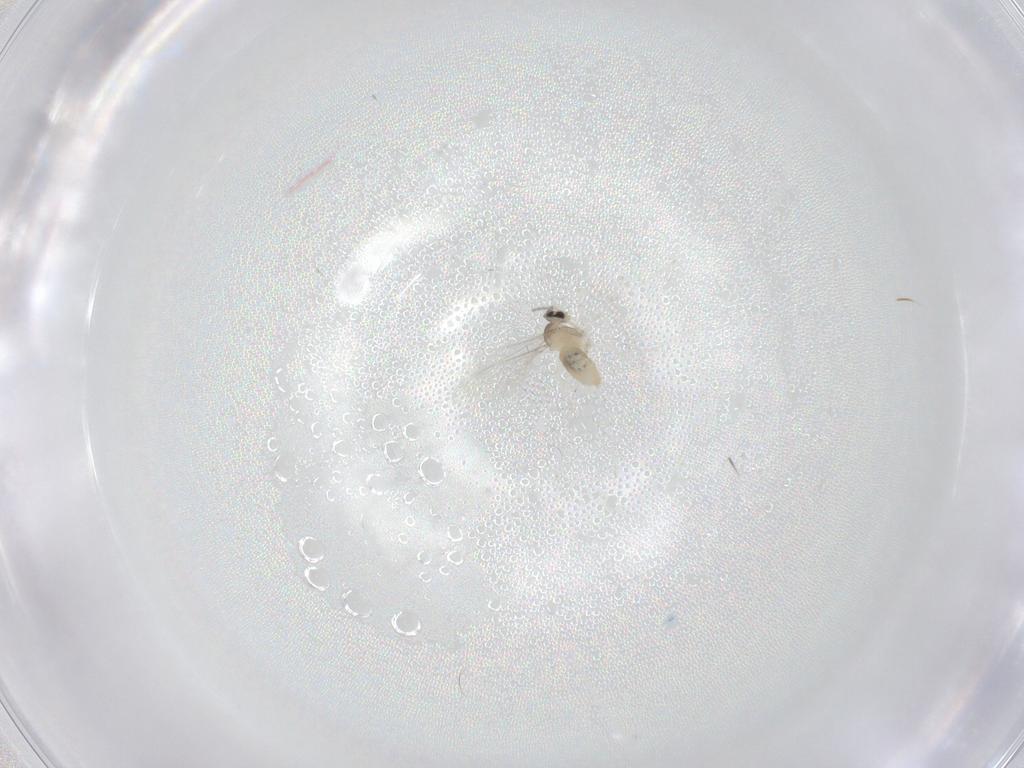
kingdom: Animalia
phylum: Arthropoda
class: Insecta
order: Diptera
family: Cecidomyiidae
